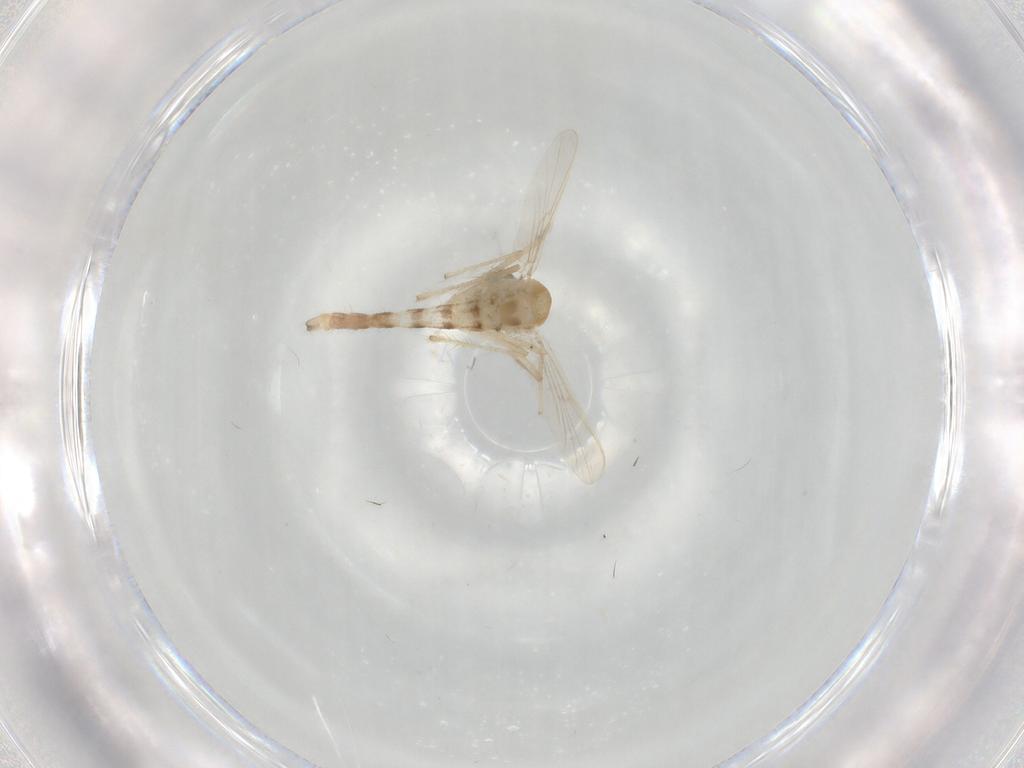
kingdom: Animalia
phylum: Arthropoda
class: Insecta
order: Diptera
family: Chironomidae
